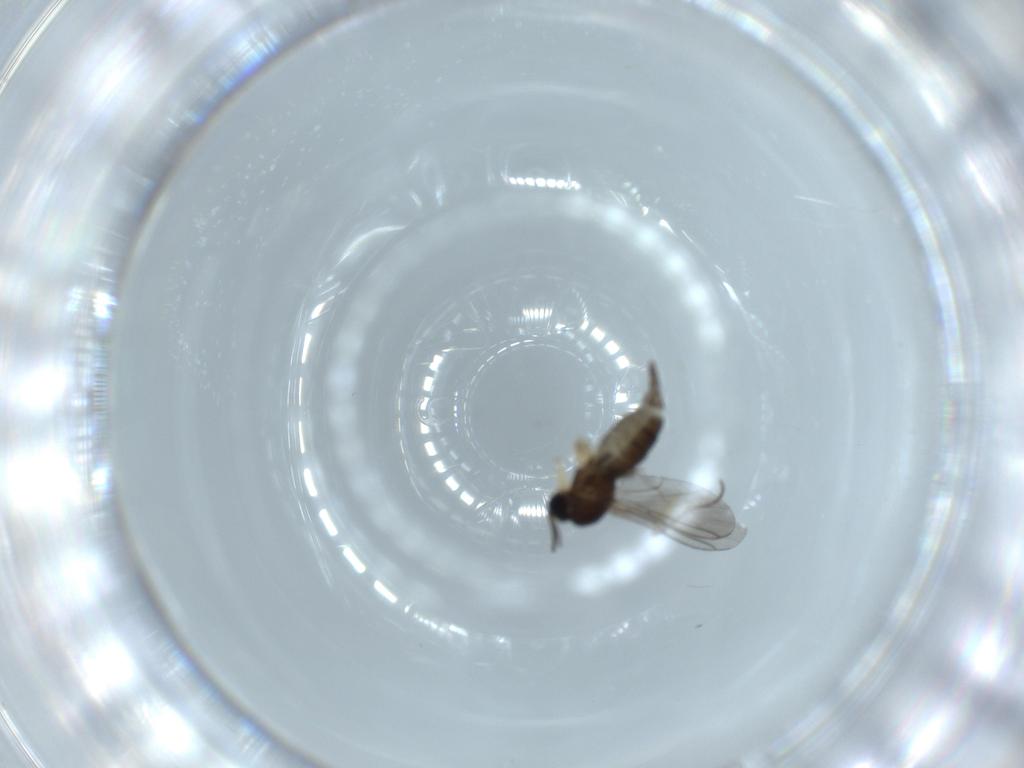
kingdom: Animalia
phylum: Arthropoda
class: Insecta
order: Diptera
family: Sciaridae
